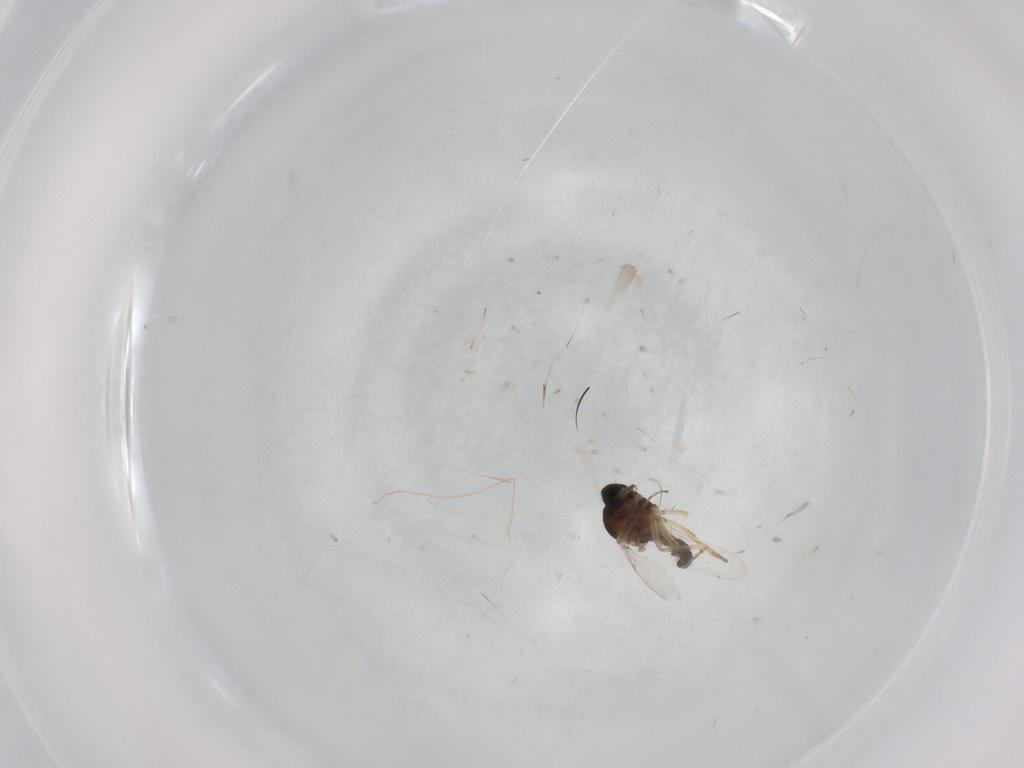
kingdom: Animalia
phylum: Arthropoda
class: Insecta
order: Diptera
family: Ceratopogonidae
